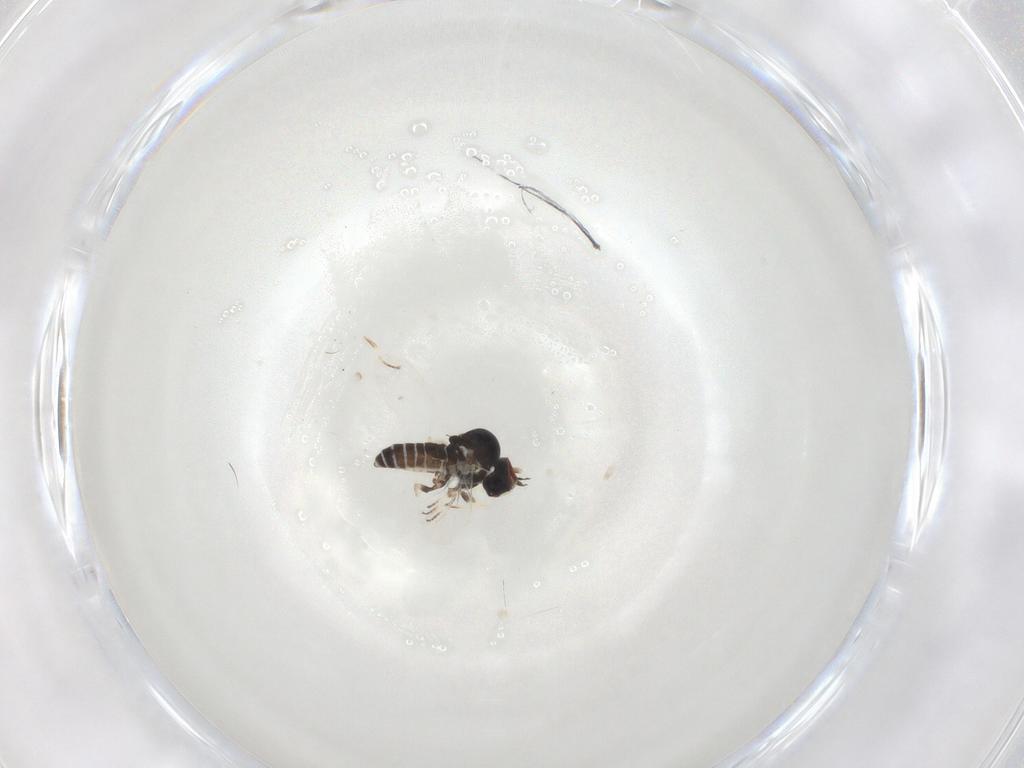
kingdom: Animalia
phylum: Arthropoda
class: Insecta
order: Diptera
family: Bombyliidae
